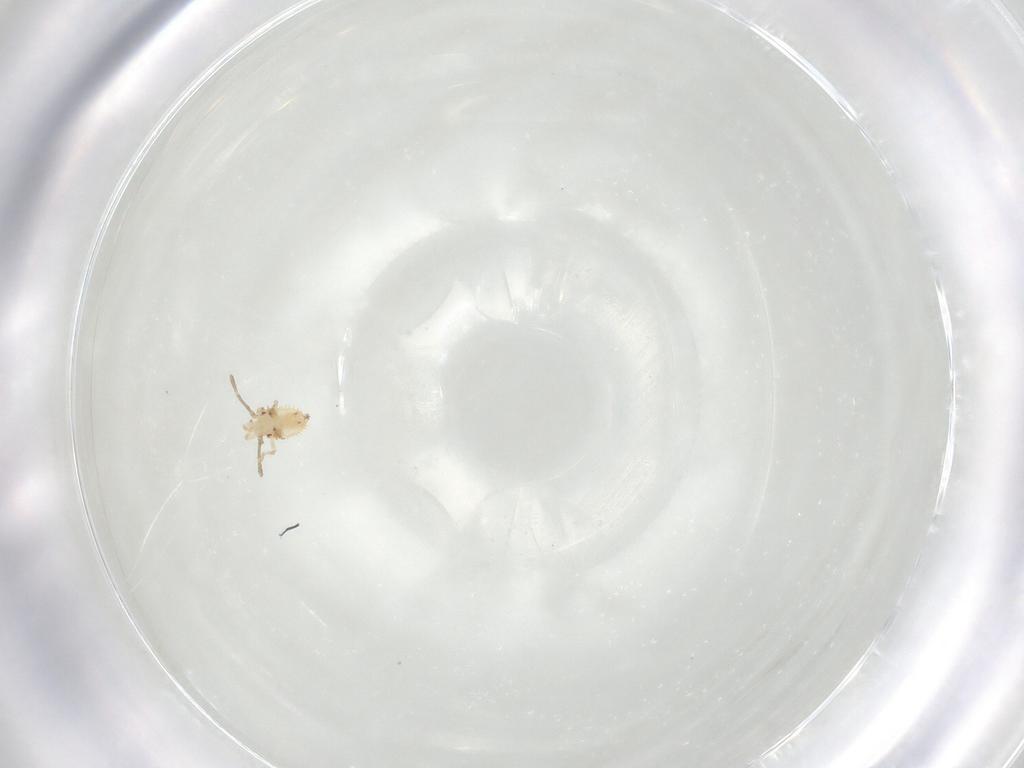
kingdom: Animalia
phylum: Arthropoda
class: Insecta
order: Hemiptera
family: Tingidae
